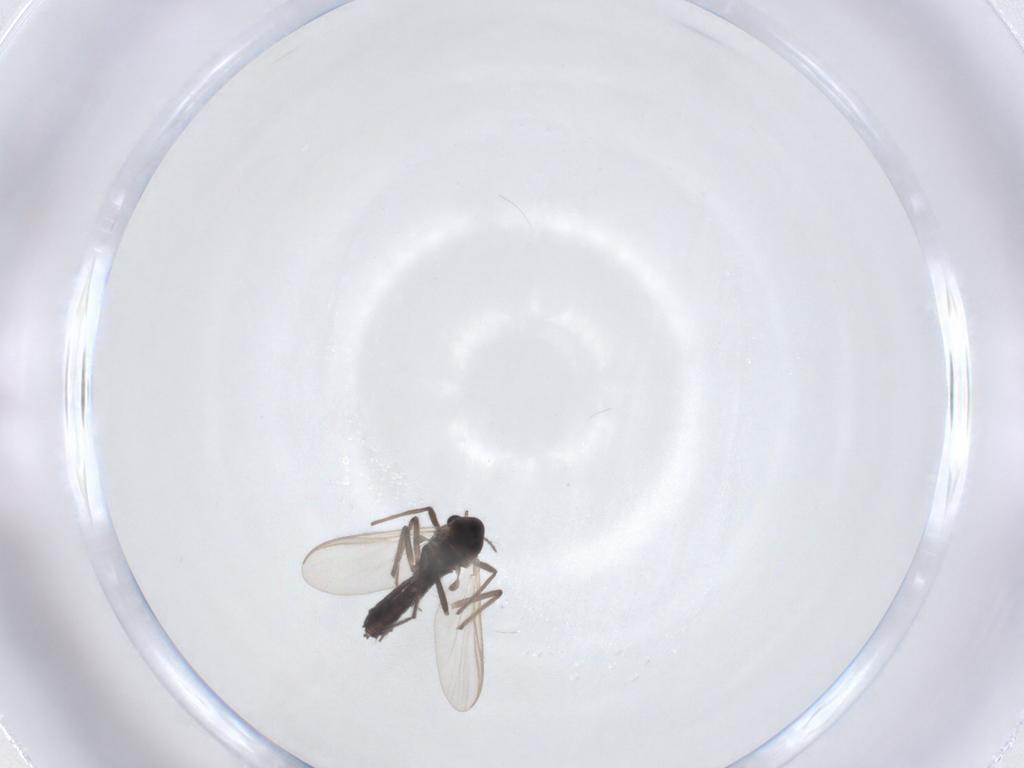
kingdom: Animalia
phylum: Arthropoda
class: Insecta
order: Diptera
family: Chironomidae
